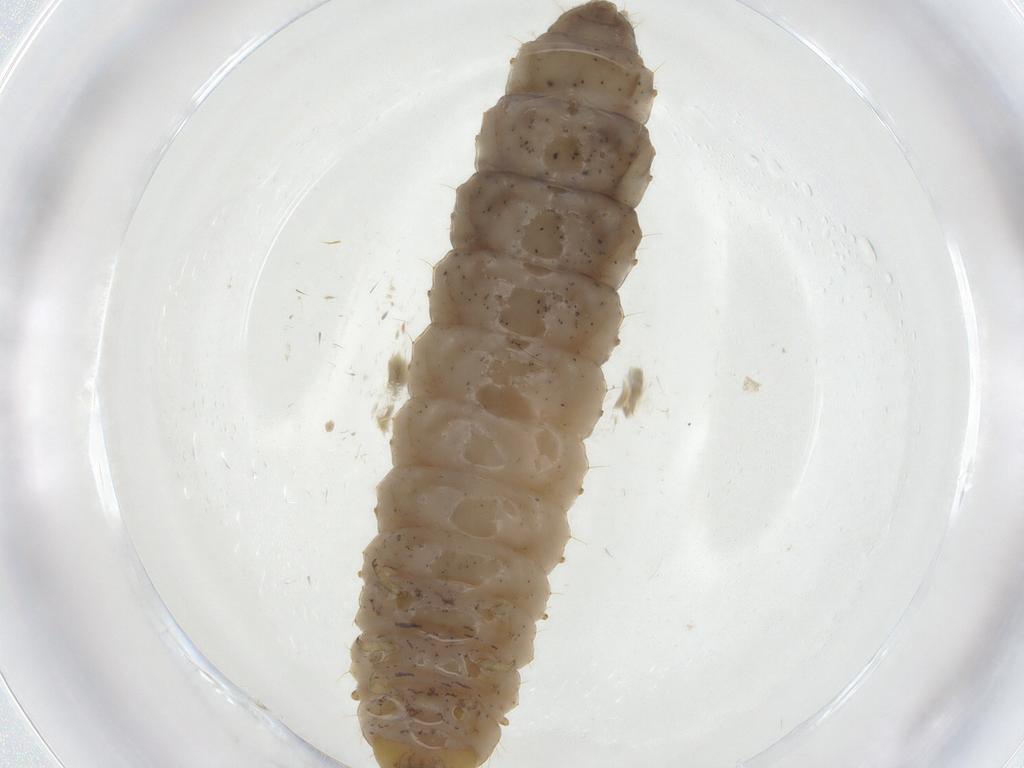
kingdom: Animalia
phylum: Arthropoda
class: Insecta
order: Coleoptera
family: Nitidulidae
